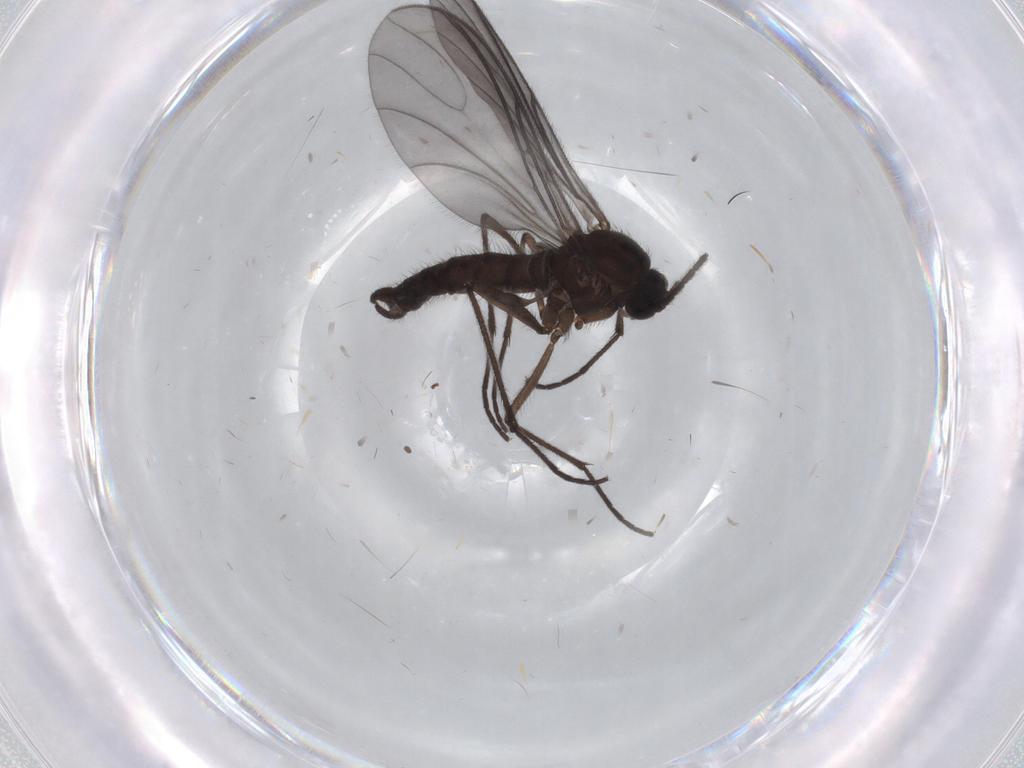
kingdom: Animalia
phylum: Arthropoda
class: Insecta
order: Diptera
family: Sciaridae
